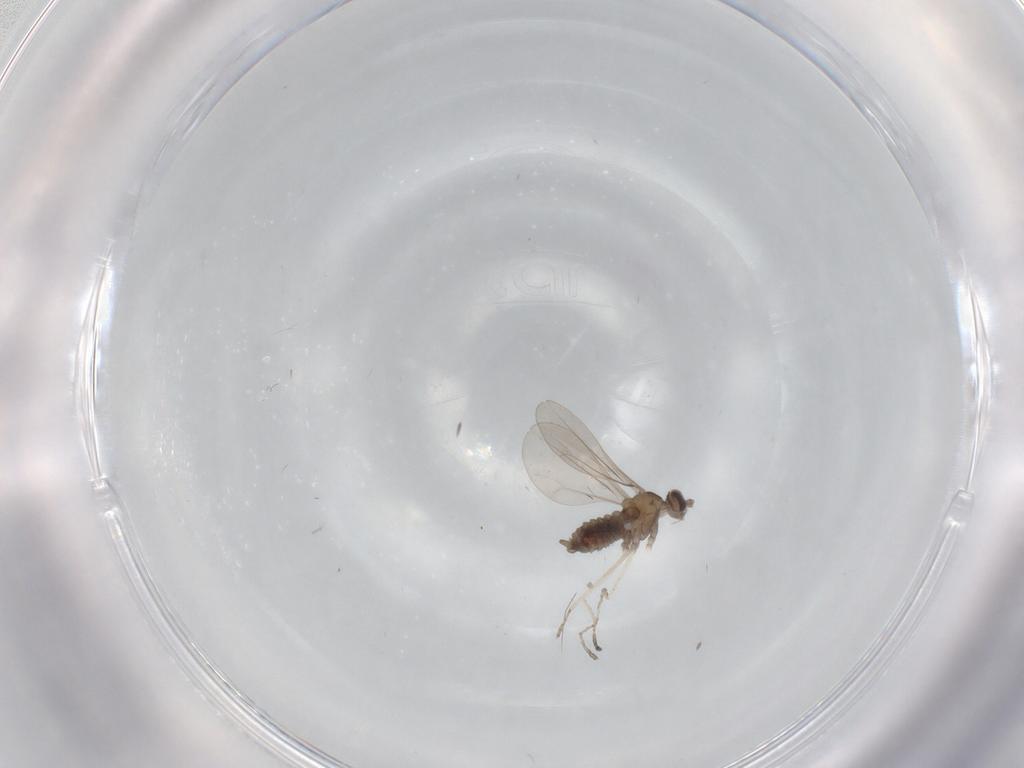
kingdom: Animalia
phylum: Arthropoda
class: Insecta
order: Diptera
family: Cecidomyiidae
